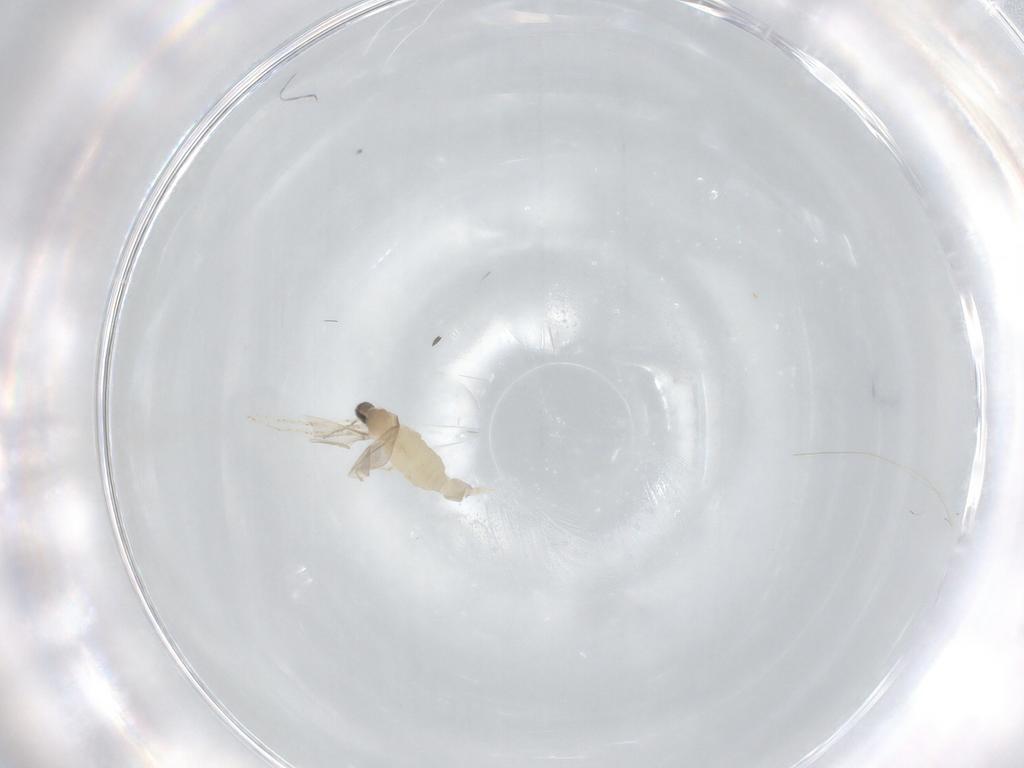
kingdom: Animalia
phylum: Arthropoda
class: Insecta
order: Diptera
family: Cecidomyiidae
